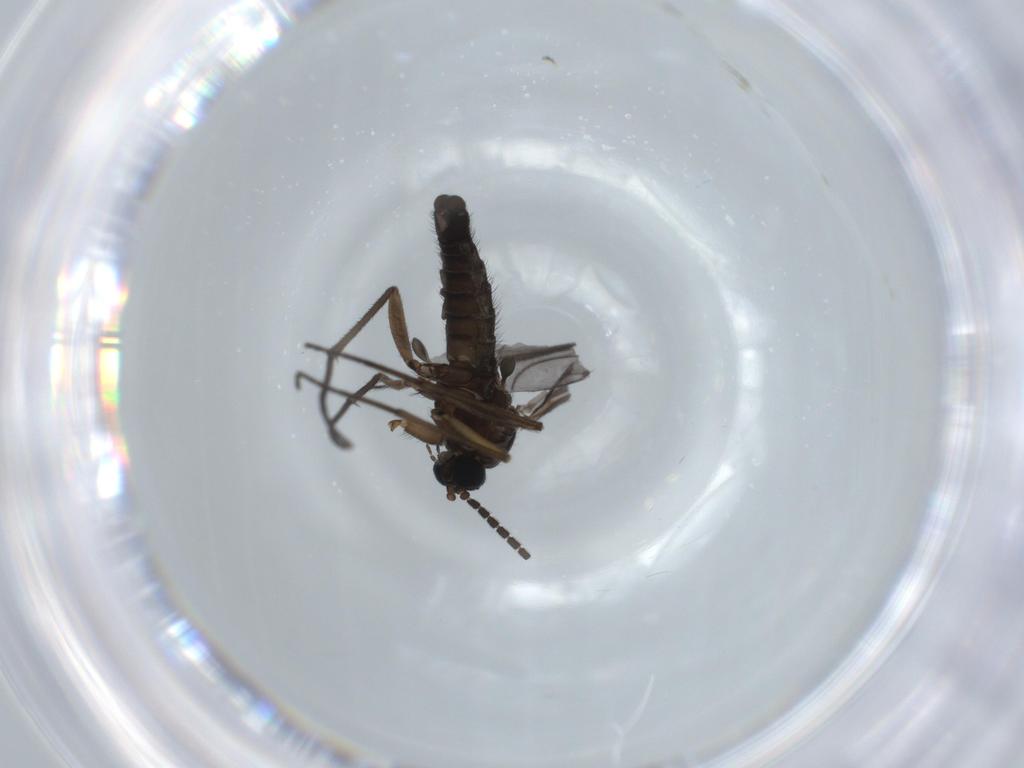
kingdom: Animalia
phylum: Arthropoda
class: Insecta
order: Diptera
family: Sciaridae
